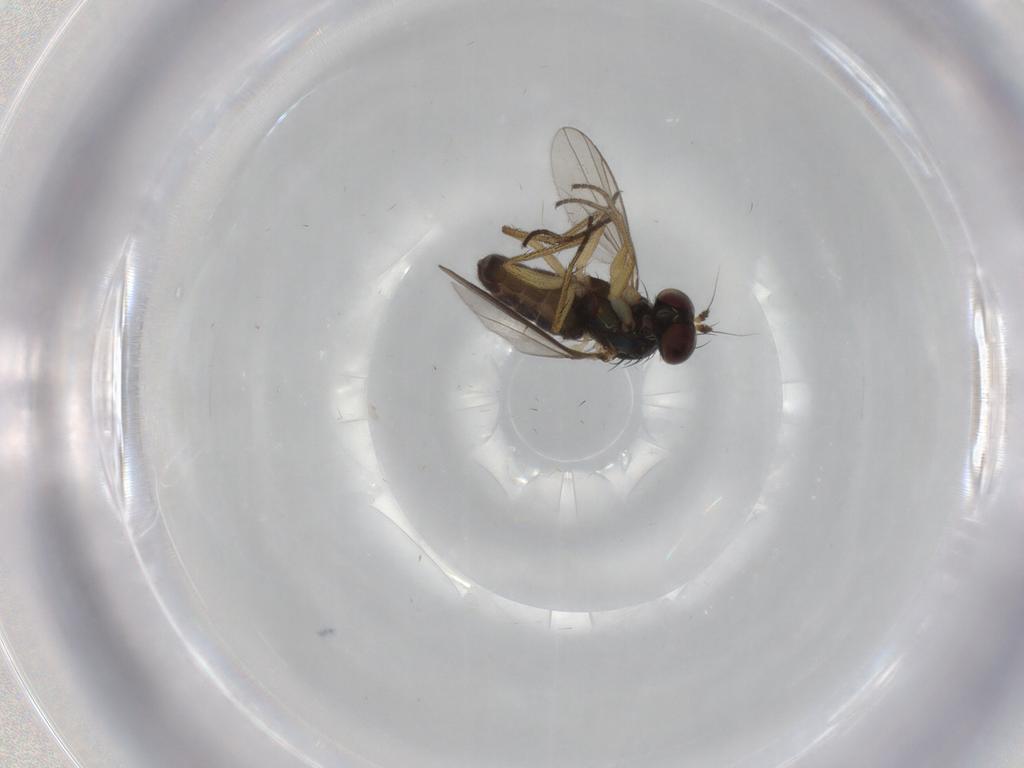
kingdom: Animalia
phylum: Arthropoda
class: Insecta
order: Diptera
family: Dolichopodidae
